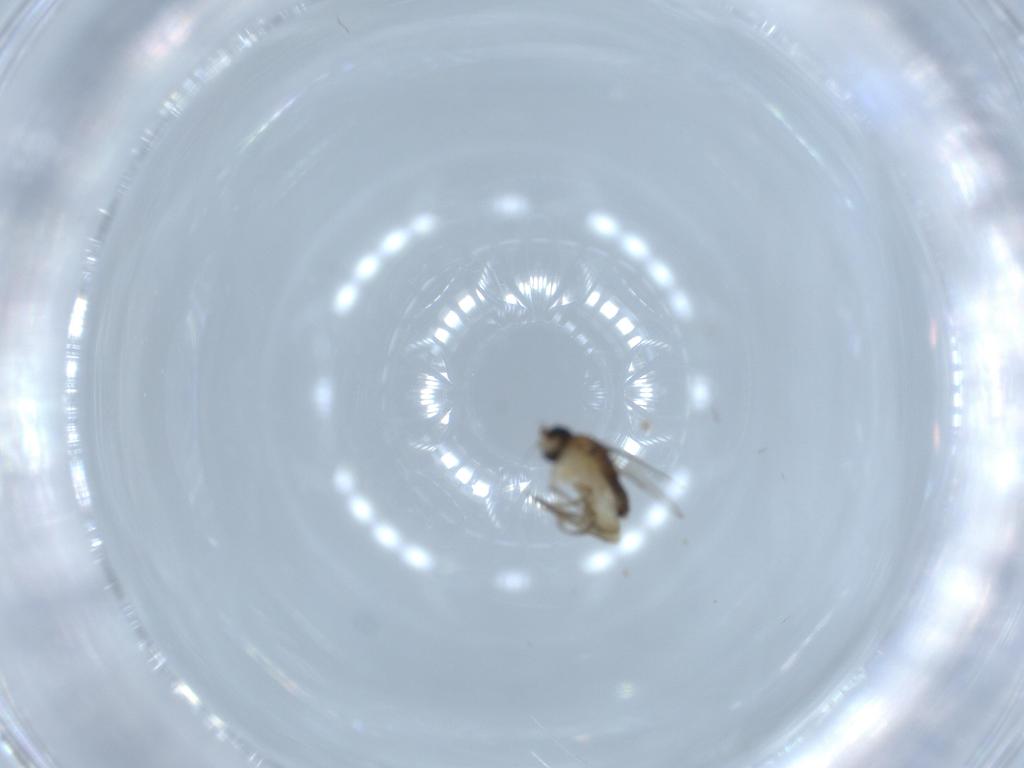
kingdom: Animalia
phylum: Arthropoda
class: Insecta
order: Diptera
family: Phoridae
